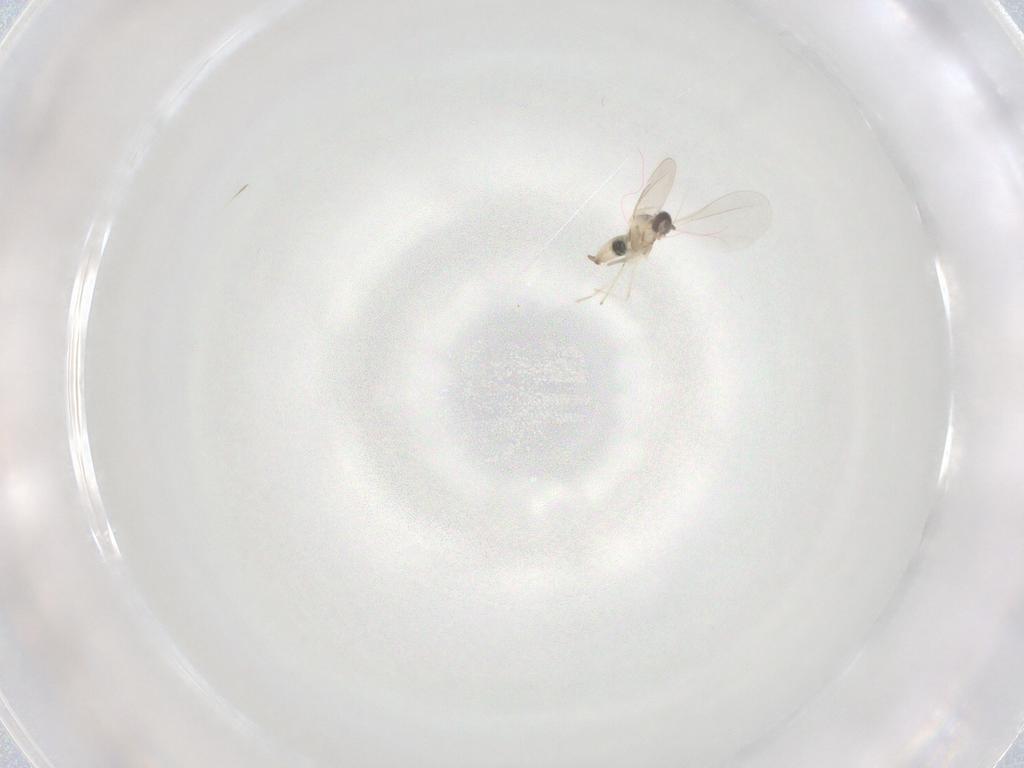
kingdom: Animalia
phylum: Arthropoda
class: Insecta
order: Diptera
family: Cecidomyiidae
